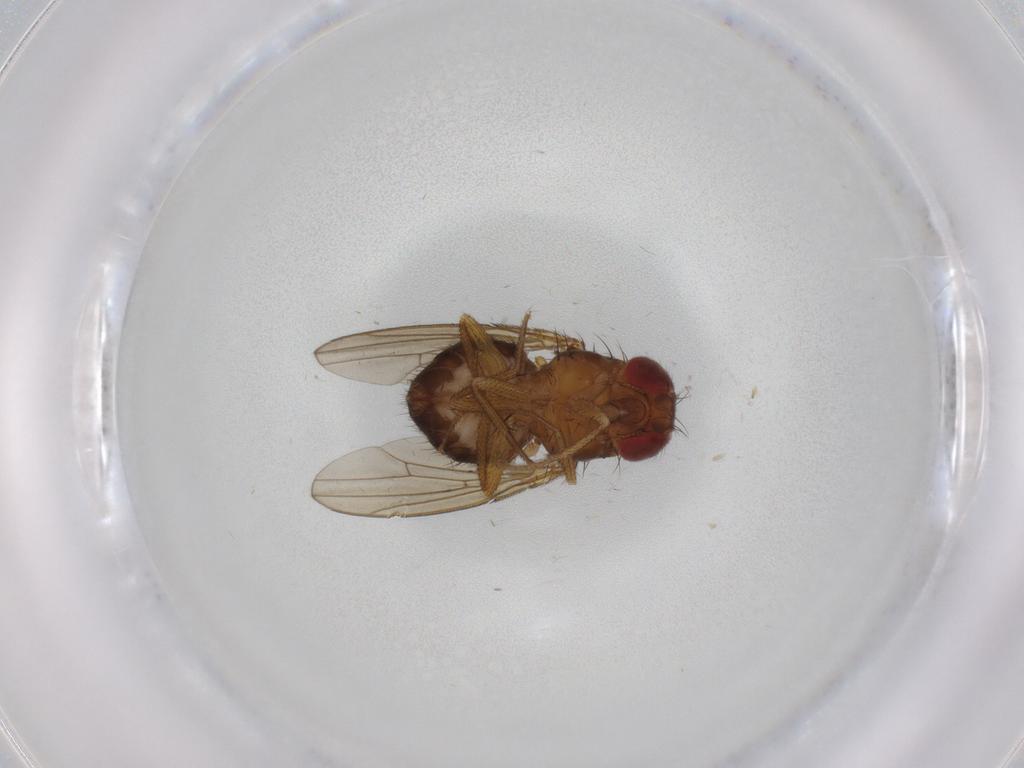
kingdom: Animalia
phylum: Arthropoda
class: Insecta
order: Diptera
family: Drosophilidae
